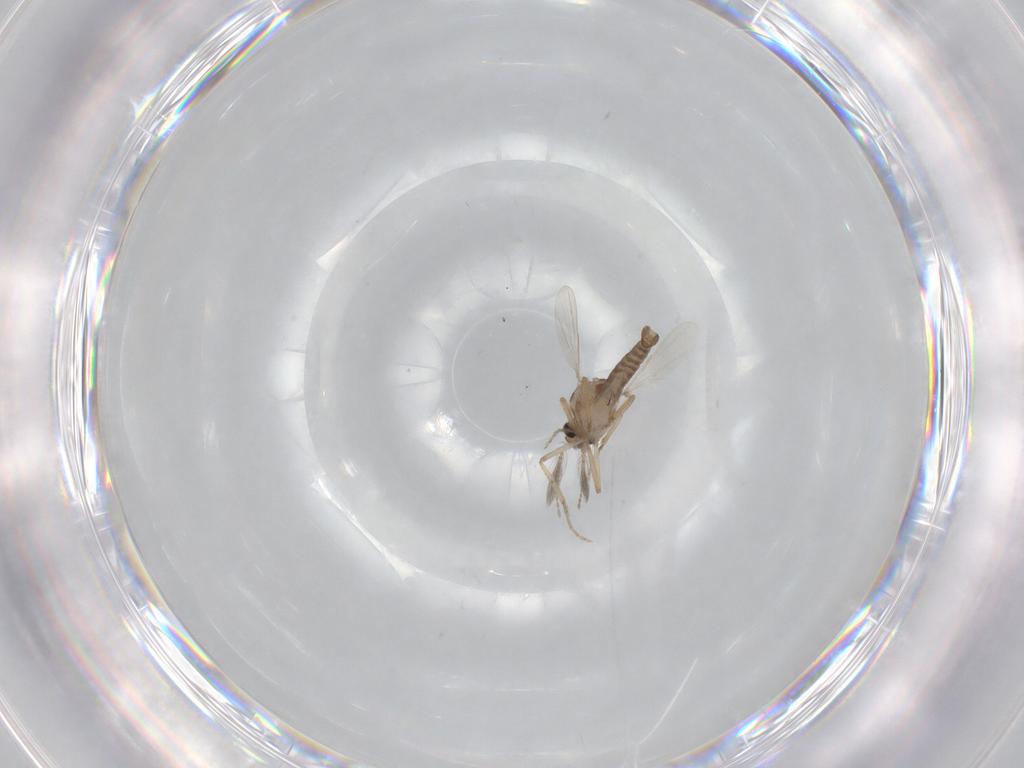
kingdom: Animalia
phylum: Arthropoda
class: Insecta
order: Diptera
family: Ceratopogonidae
